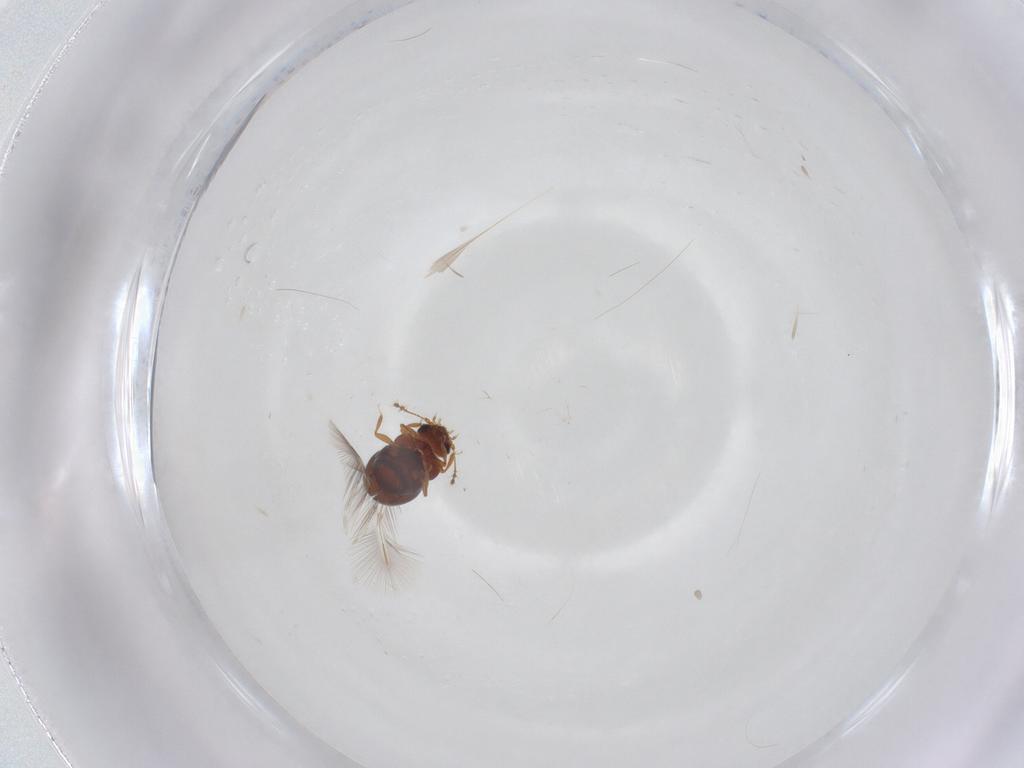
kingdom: Animalia
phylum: Arthropoda
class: Insecta
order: Coleoptera
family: Ptiliidae
